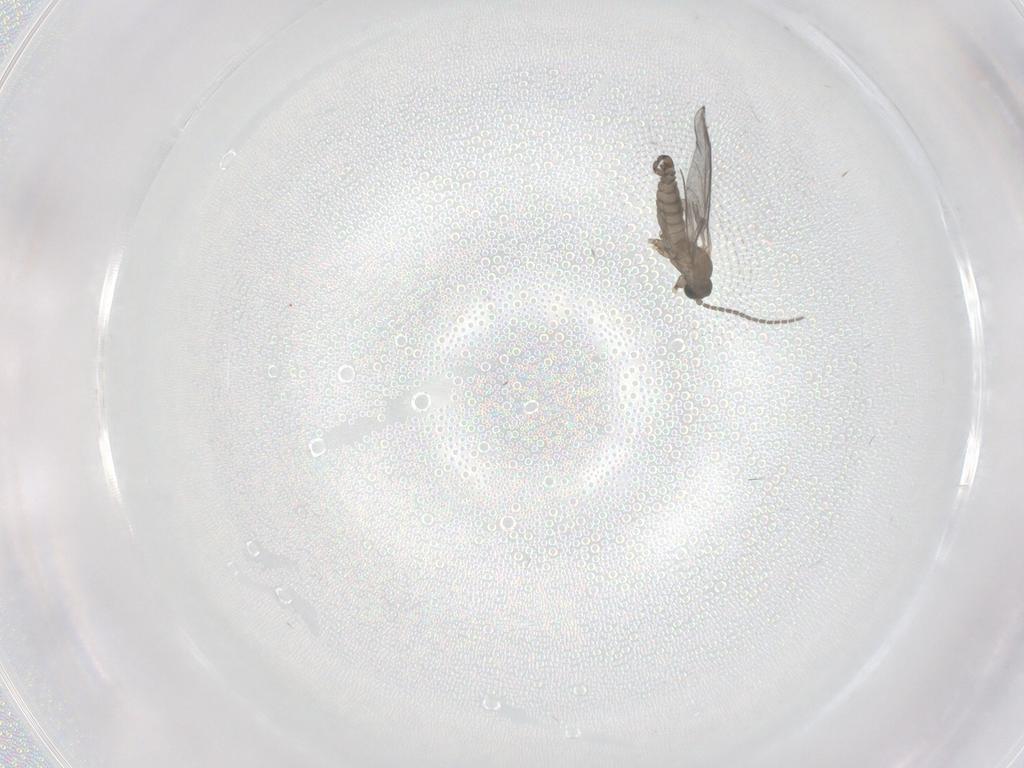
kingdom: Animalia
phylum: Arthropoda
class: Insecta
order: Diptera
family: Sciaridae
